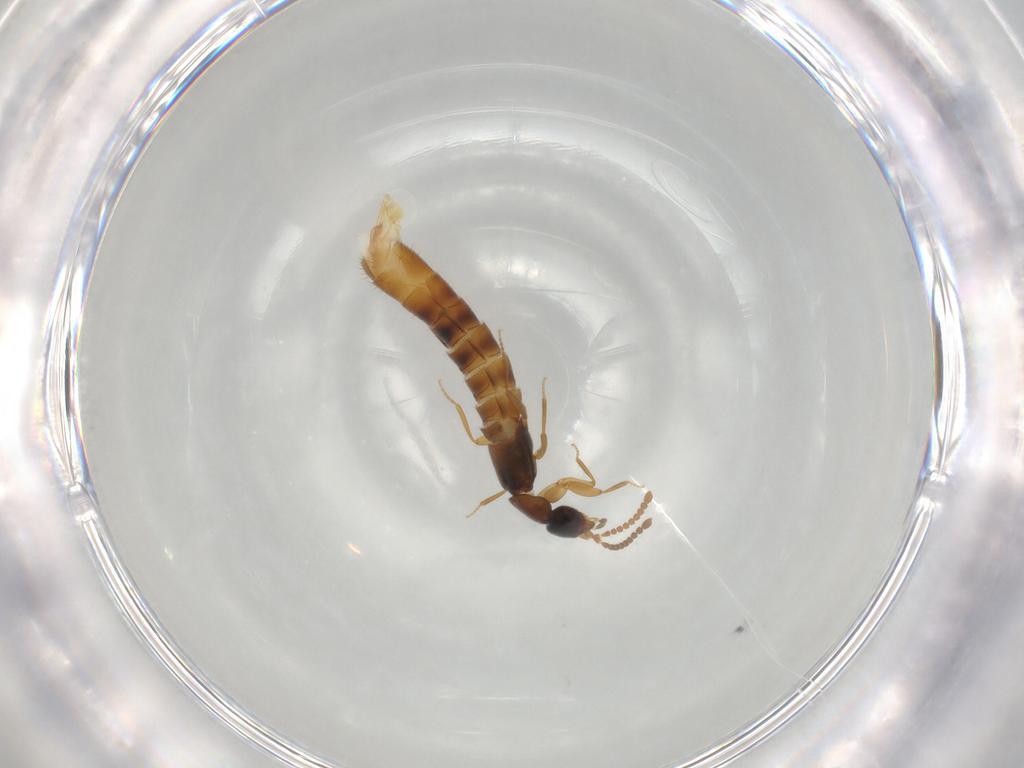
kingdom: Animalia
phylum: Arthropoda
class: Insecta
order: Coleoptera
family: Staphylinidae
